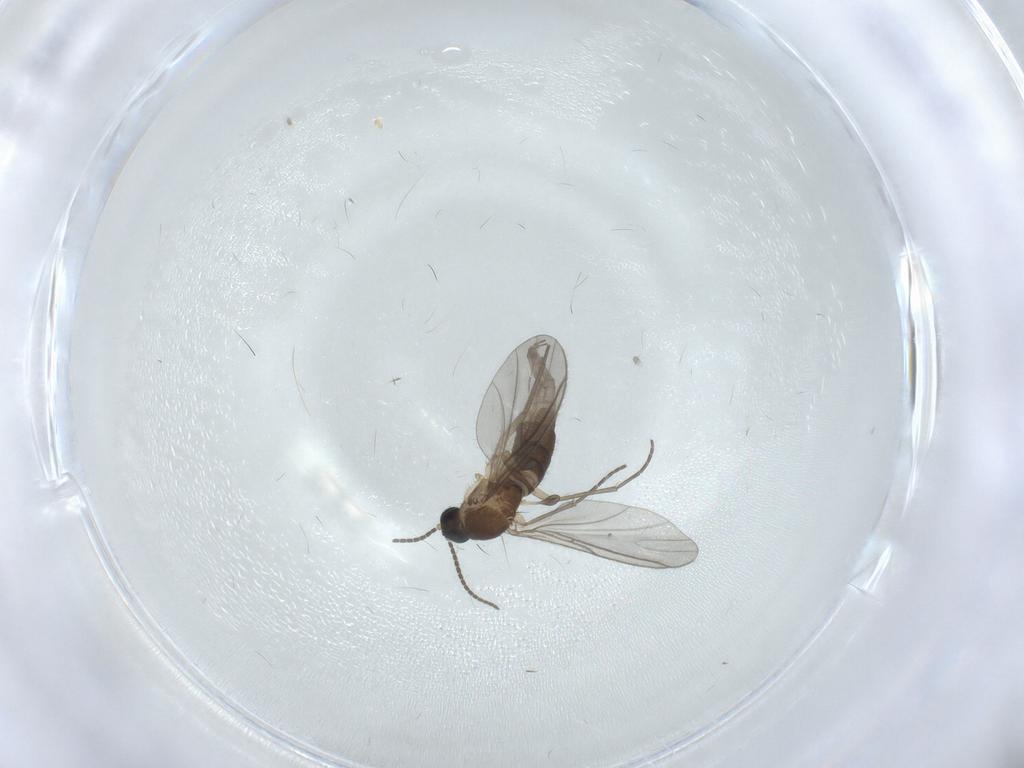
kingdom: Animalia
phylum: Arthropoda
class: Insecta
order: Diptera
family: Sciaridae
